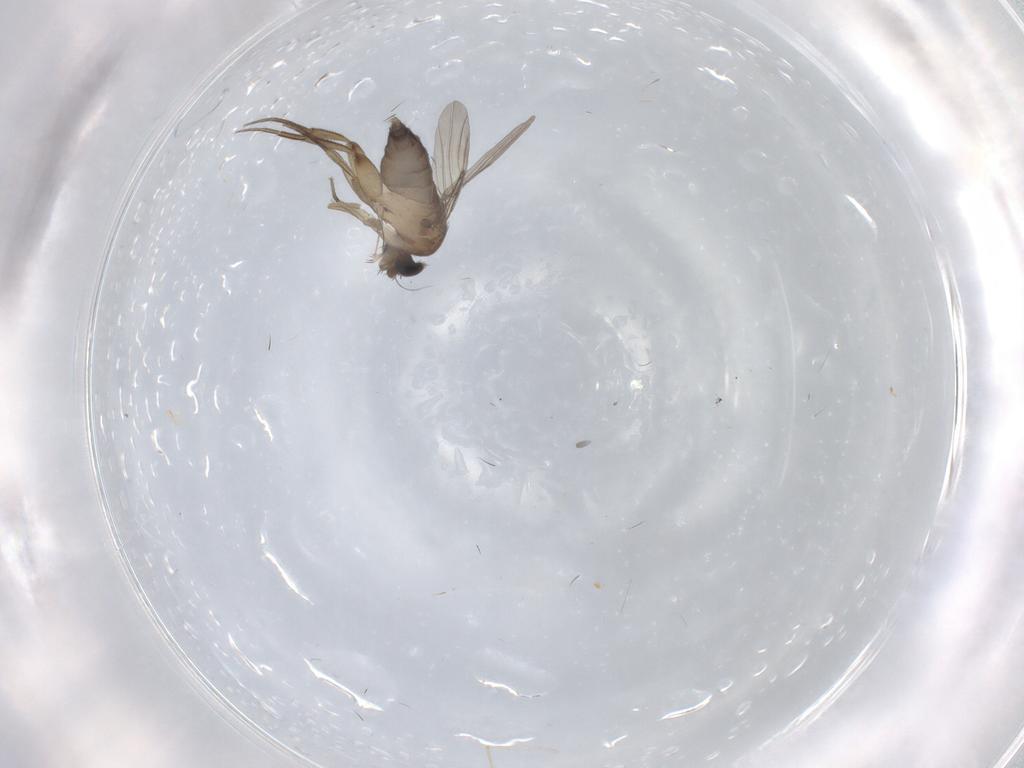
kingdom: Animalia
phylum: Arthropoda
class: Insecta
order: Diptera
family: Phoridae
